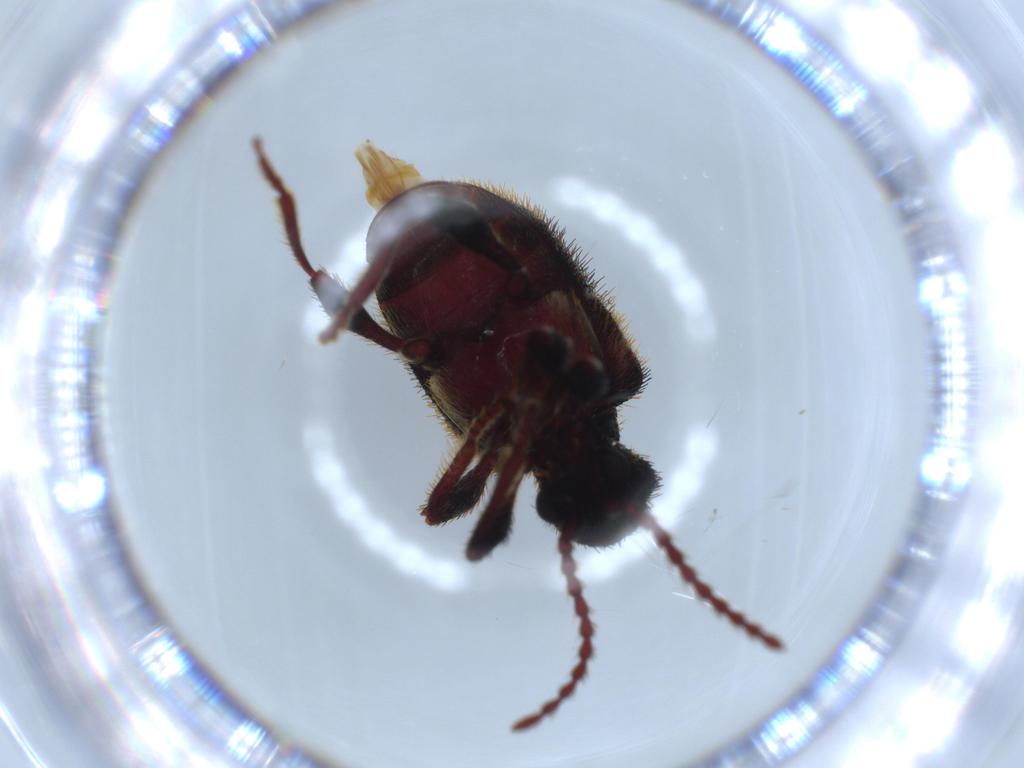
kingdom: Animalia
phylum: Arthropoda
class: Insecta
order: Coleoptera
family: Ptinidae
